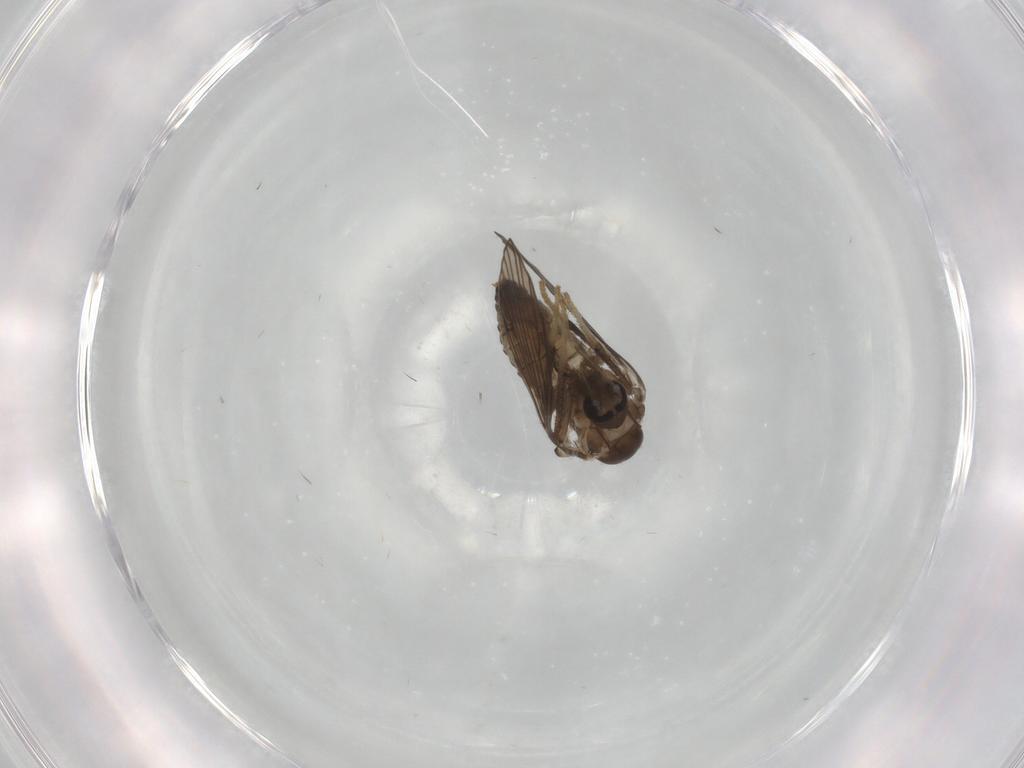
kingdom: Animalia
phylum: Arthropoda
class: Insecta
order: Diptera
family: Phoridae
